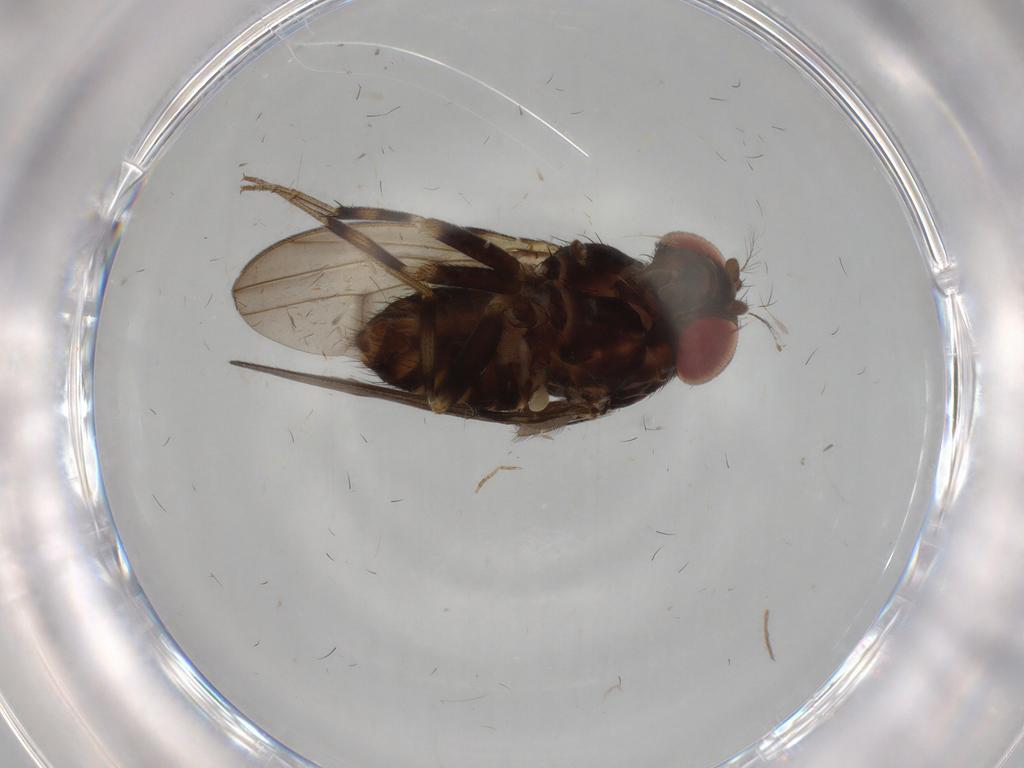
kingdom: Animalia
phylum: Arthropoda
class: Insecta
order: Diptera
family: Drosophilidae
